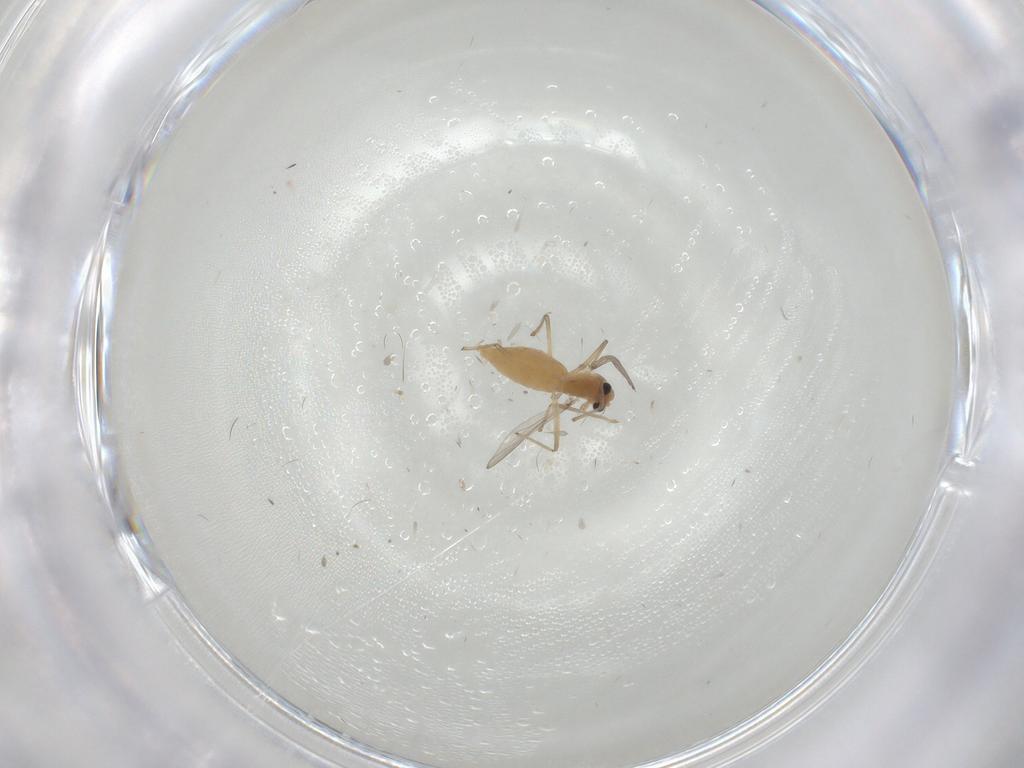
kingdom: Animalia
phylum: Arthropoda
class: Insecta
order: Diptera
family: Chironomidae
